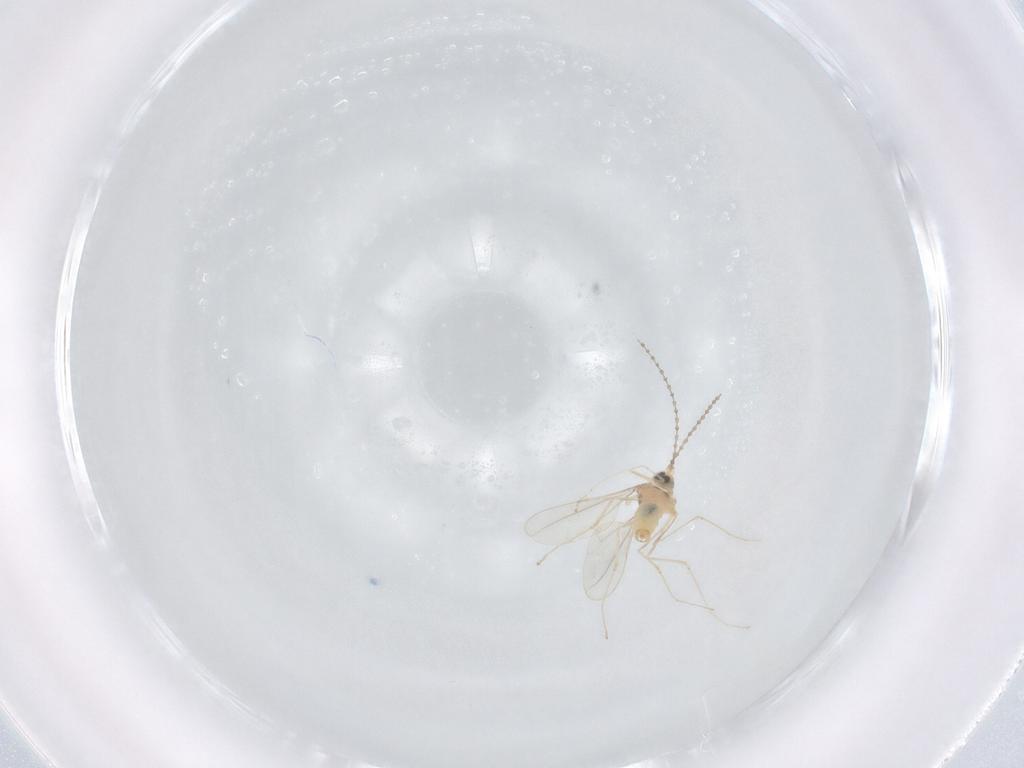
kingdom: Animalia
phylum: Arthropoda
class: Insecta
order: Diptera
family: Cecidomyiidae
